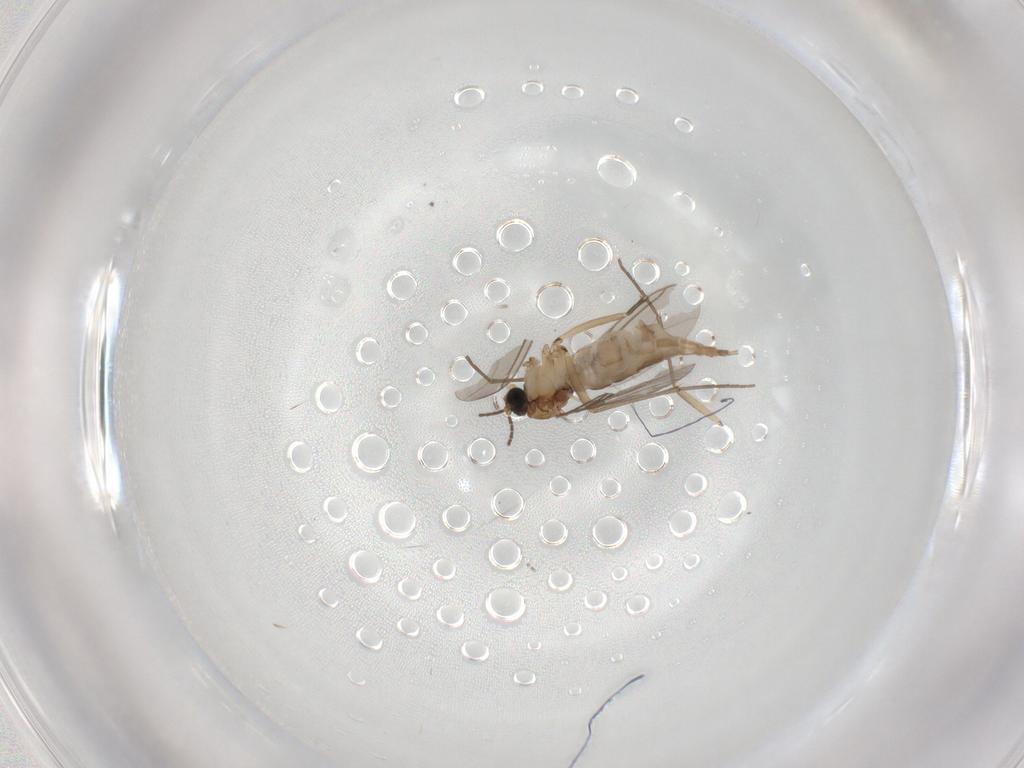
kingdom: Animalia
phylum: Arthropoda
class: Insecta
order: Diptera
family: Sciaridae
